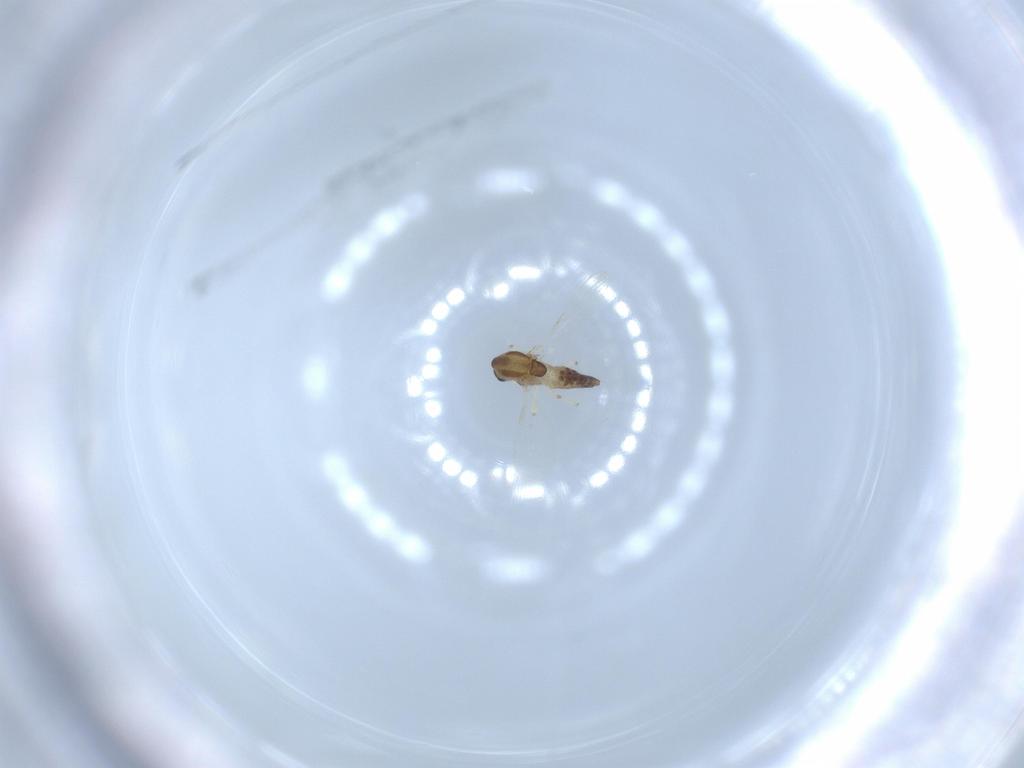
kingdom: Animalia
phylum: Arthropoda
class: Insecta
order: Diptera
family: Chironomidae
